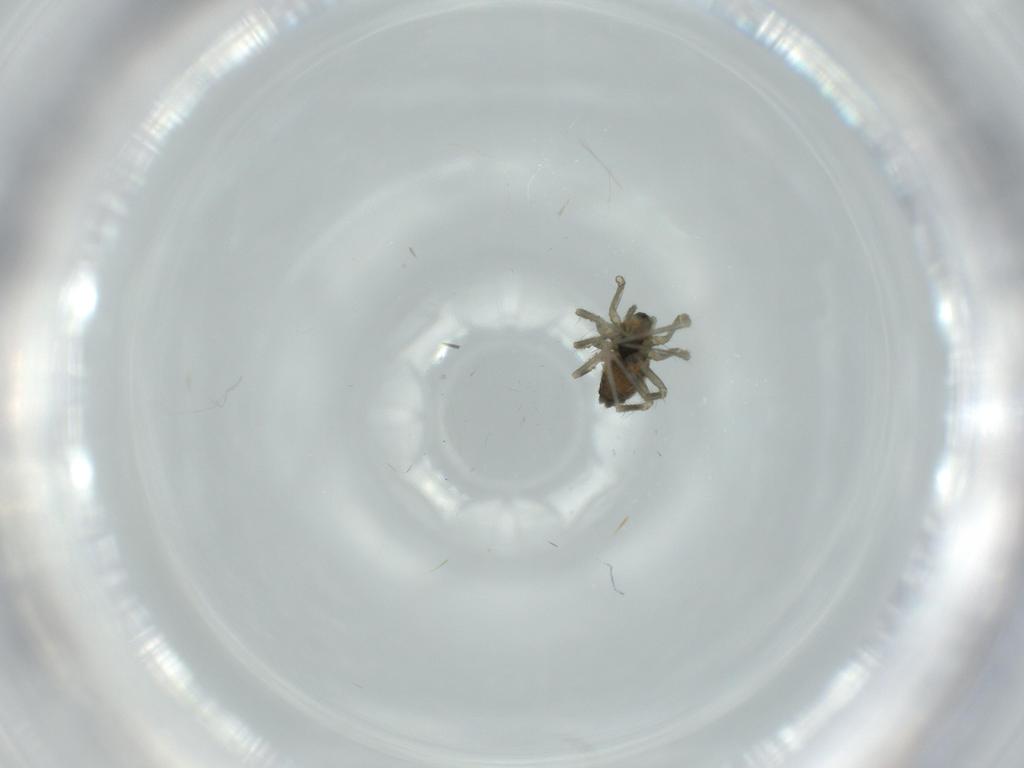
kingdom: Animalia
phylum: Arthropoda
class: Arachnida
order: Araneae
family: Linyphiidae
